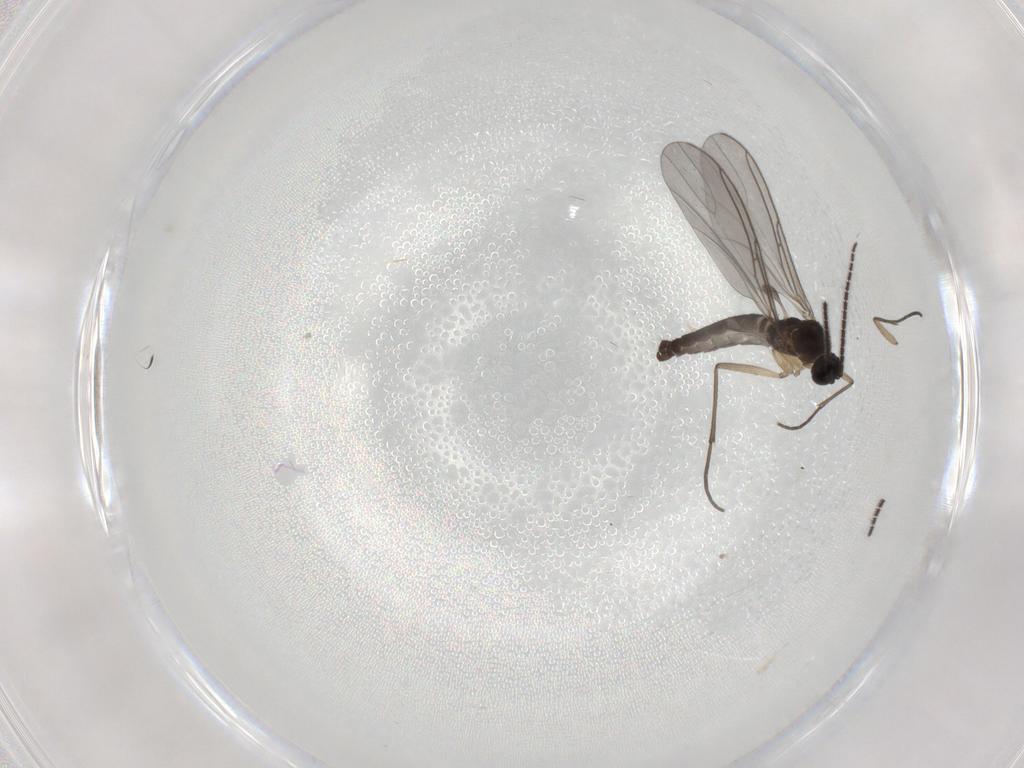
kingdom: Animalia
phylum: Arthropoda
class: Insecta
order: Diptera
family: Sciaridae
